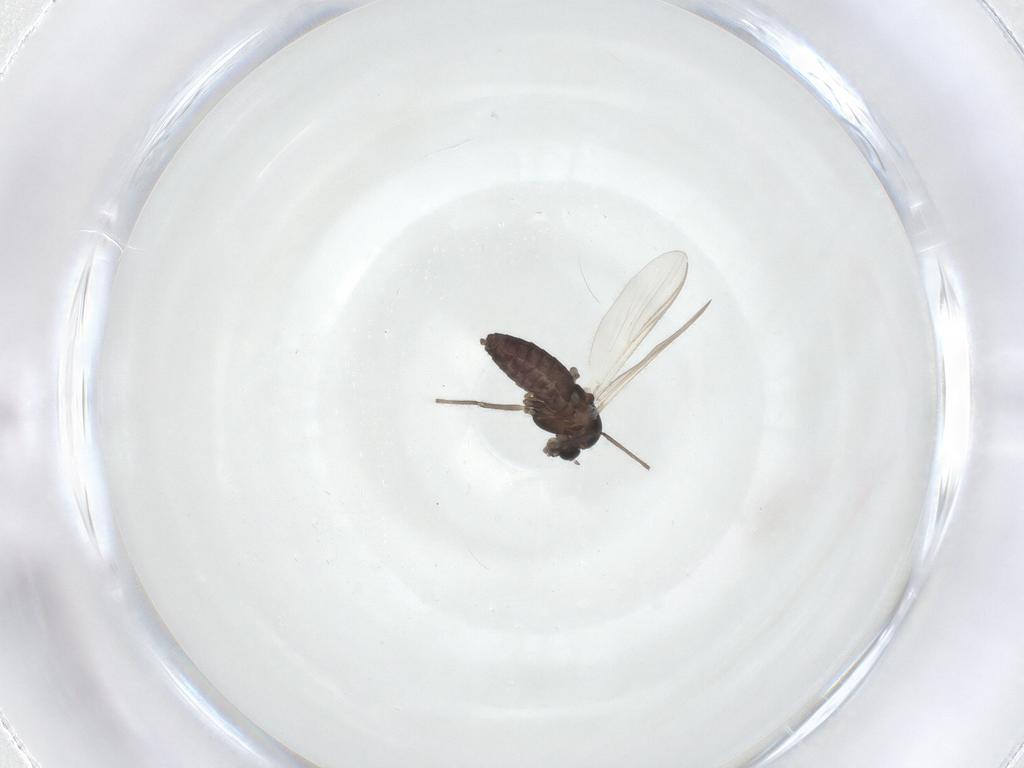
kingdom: Animalia
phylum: Arthropoda
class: Insecta
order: Diptera
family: Chironomidae
